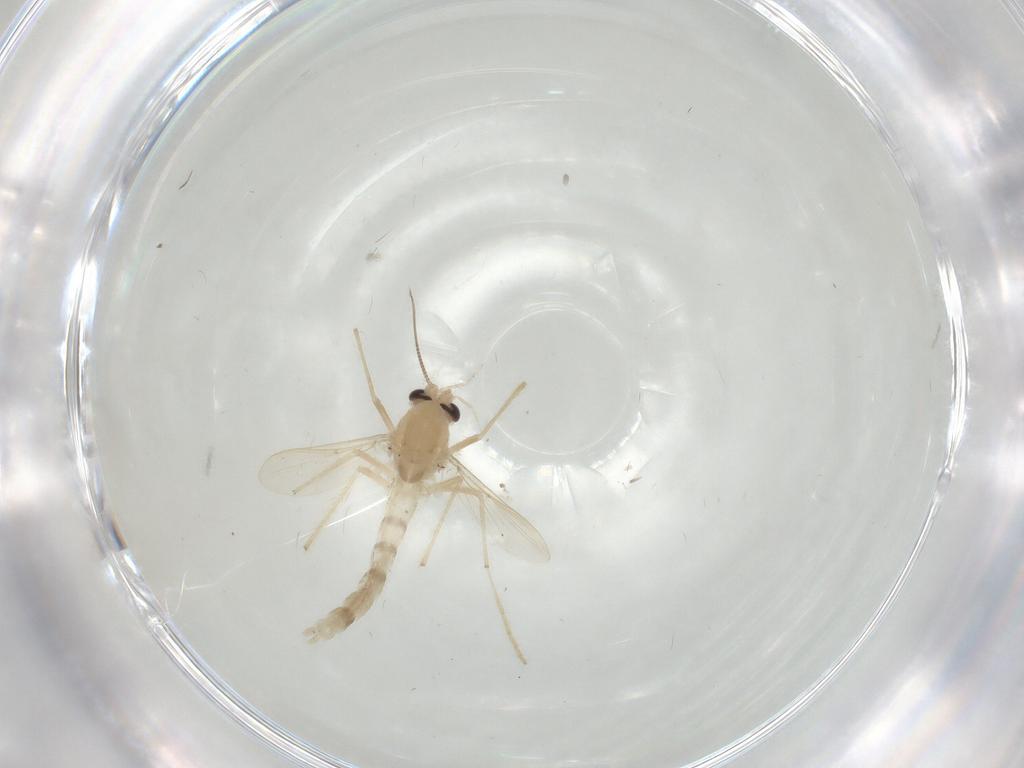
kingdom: Animalia
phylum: Arthropoda
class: Insecta
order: Diptera
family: Chironomidae
